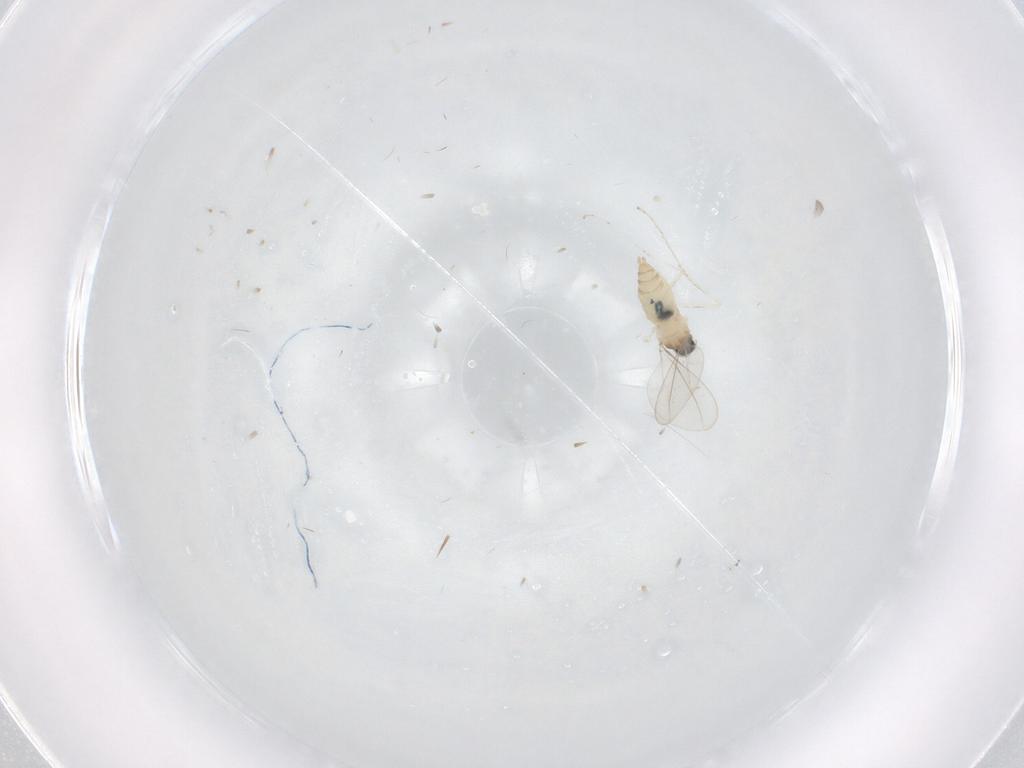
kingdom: Animalia
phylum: Arthropoda
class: Insecta
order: Diptera
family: Cecidomyiidae
